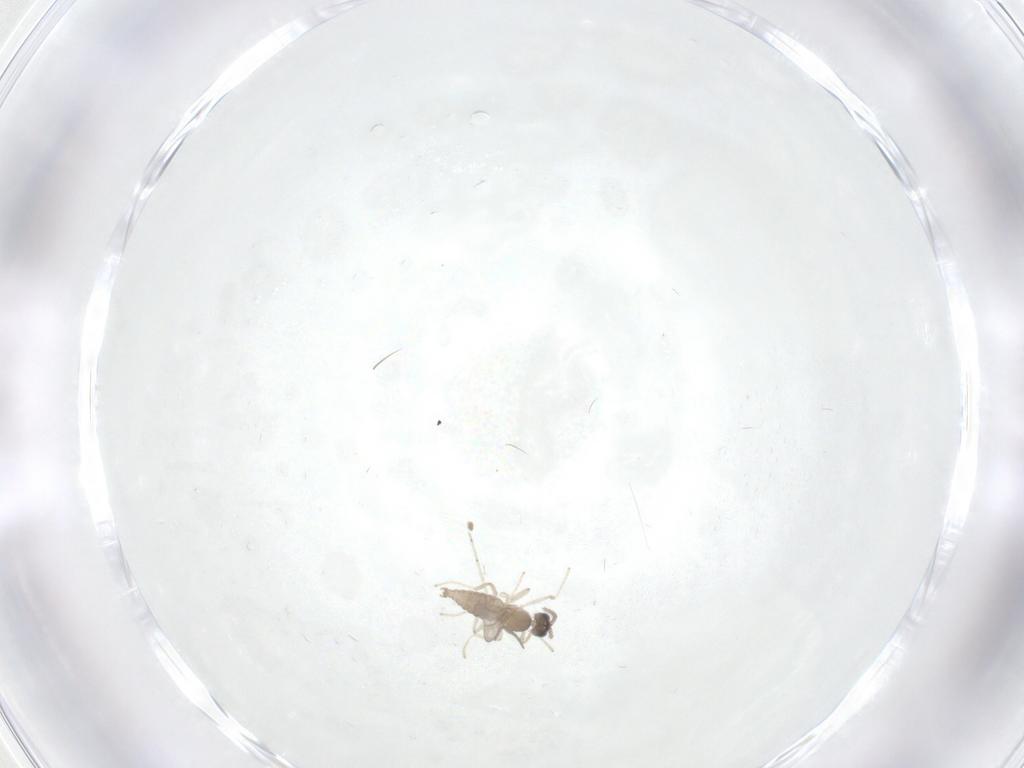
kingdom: Animalia
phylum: Arthropoda
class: Insecta
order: Diptera
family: Cecidomyiidae
